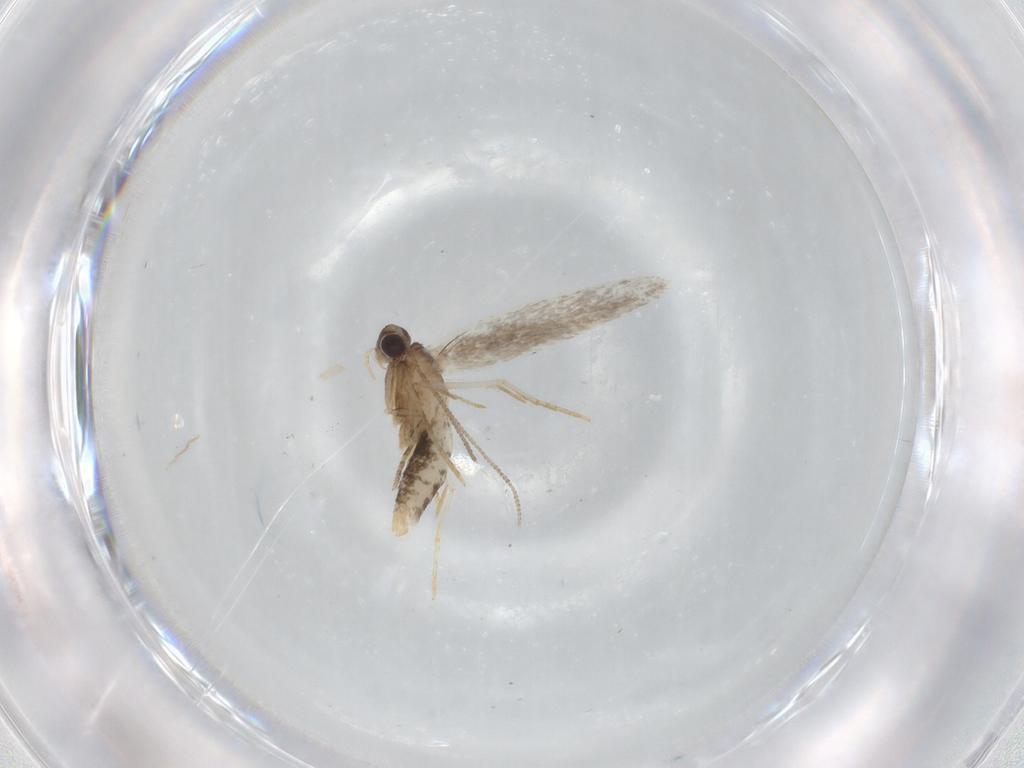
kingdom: Animalia
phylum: Arthropoda
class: Insecta
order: Lepidoptera
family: Tineidae
